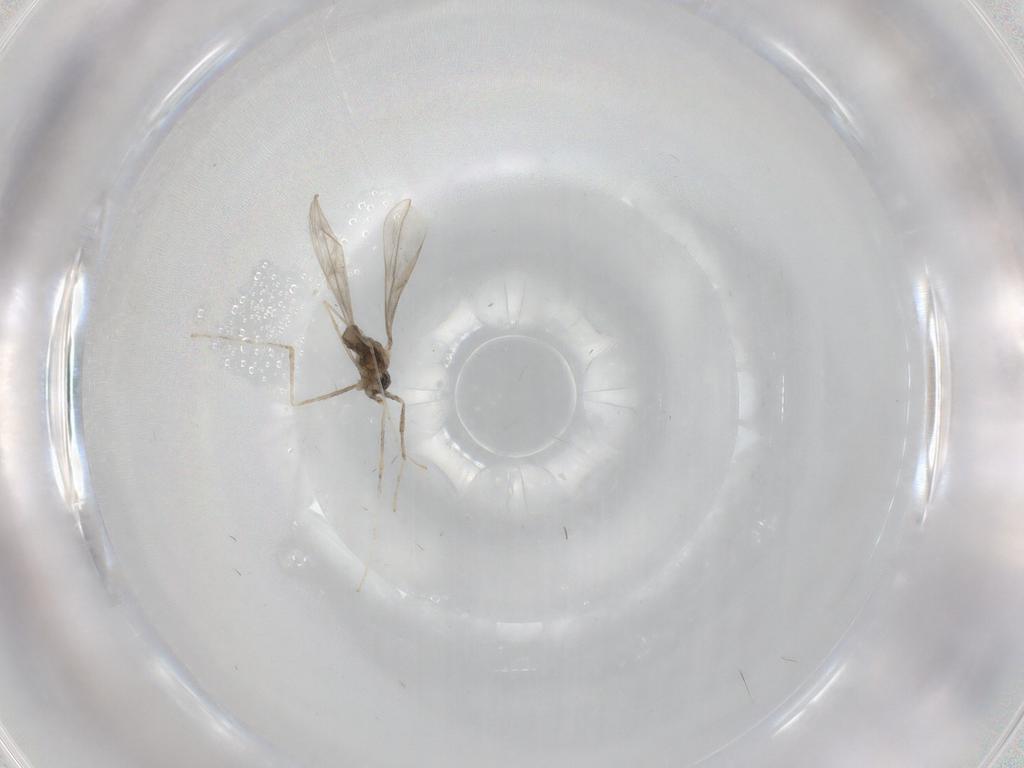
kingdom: Animalia
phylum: Arthropoda
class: Insecta
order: Diptera
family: Cecidomyiidae
